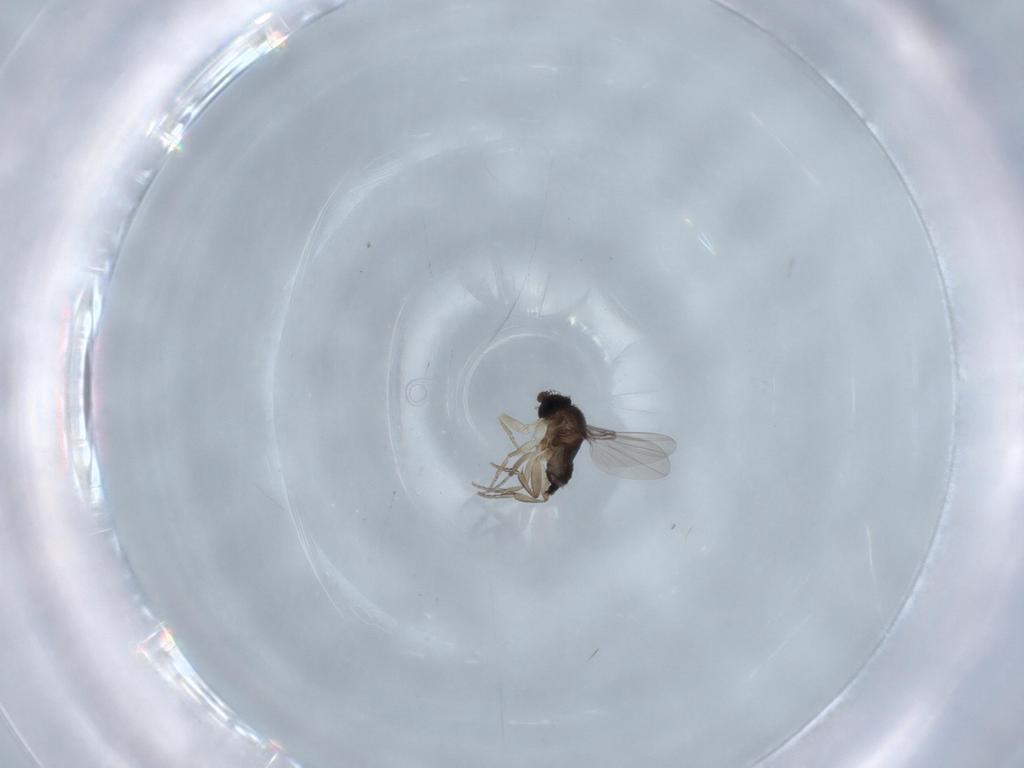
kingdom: Animalia
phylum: Arthropoda
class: Insecta
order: Diptera
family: Phoridae
